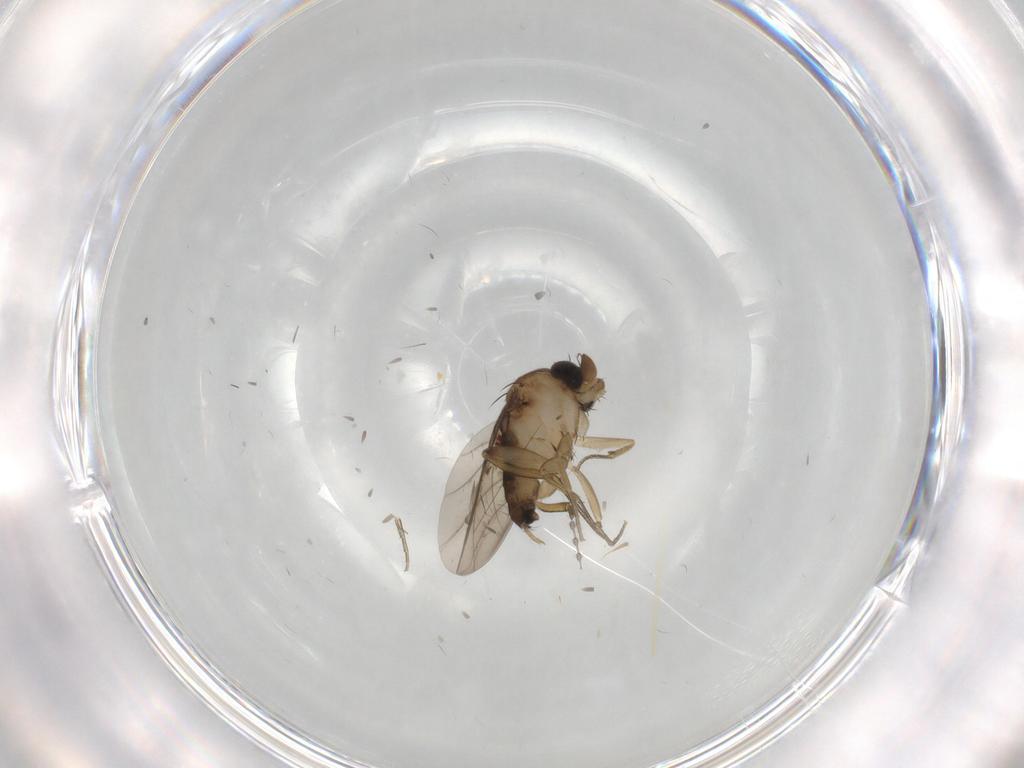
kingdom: Animalia
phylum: Arthropoda
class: Insecta
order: Diptera
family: Phoridae
